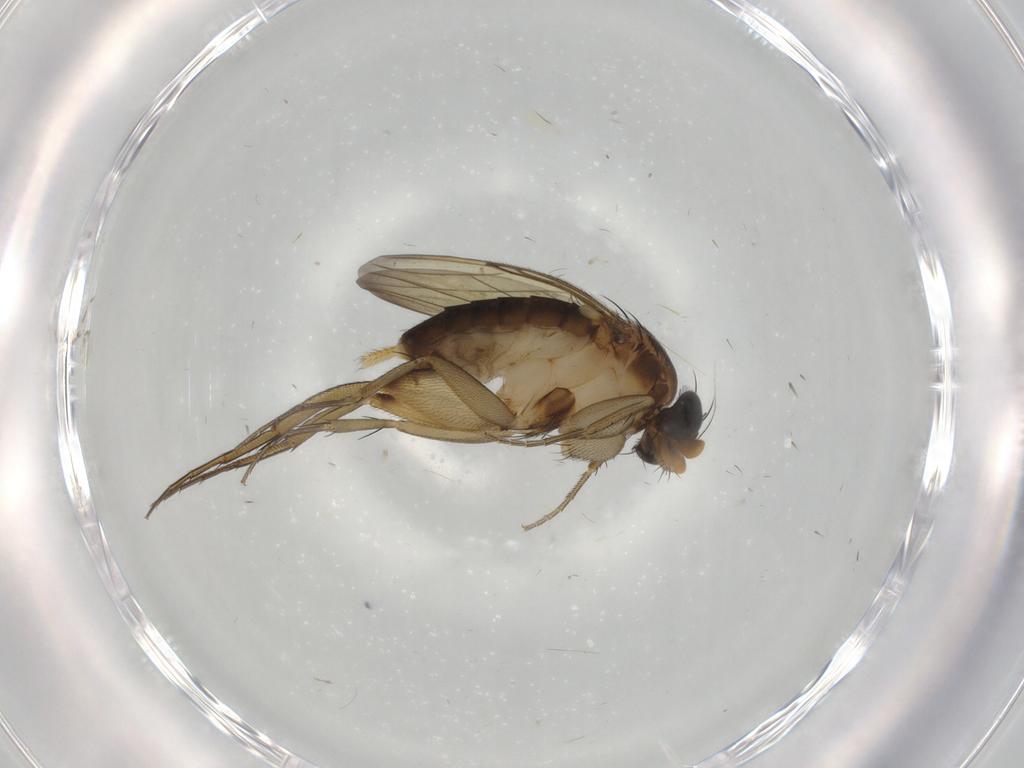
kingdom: Animalia
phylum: Arthropoda
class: Insecta
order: Diptera
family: Phoridae
